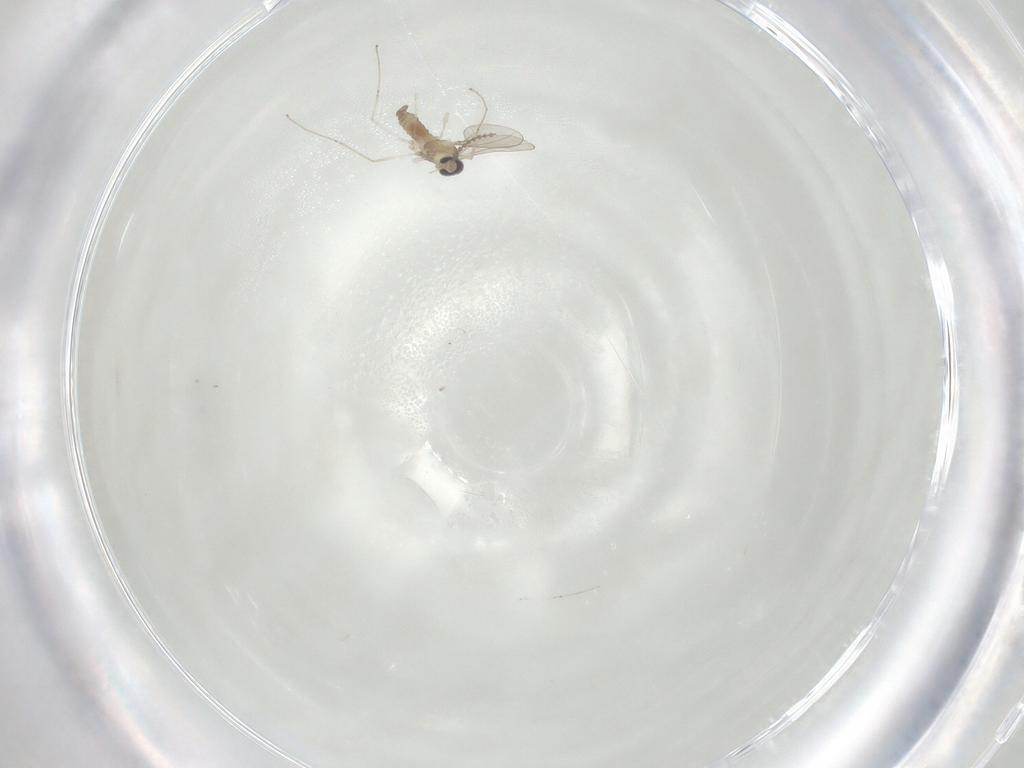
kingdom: Animalia
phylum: Arthropoda
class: Insecta
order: Diptera
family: Cecidomyiidae
